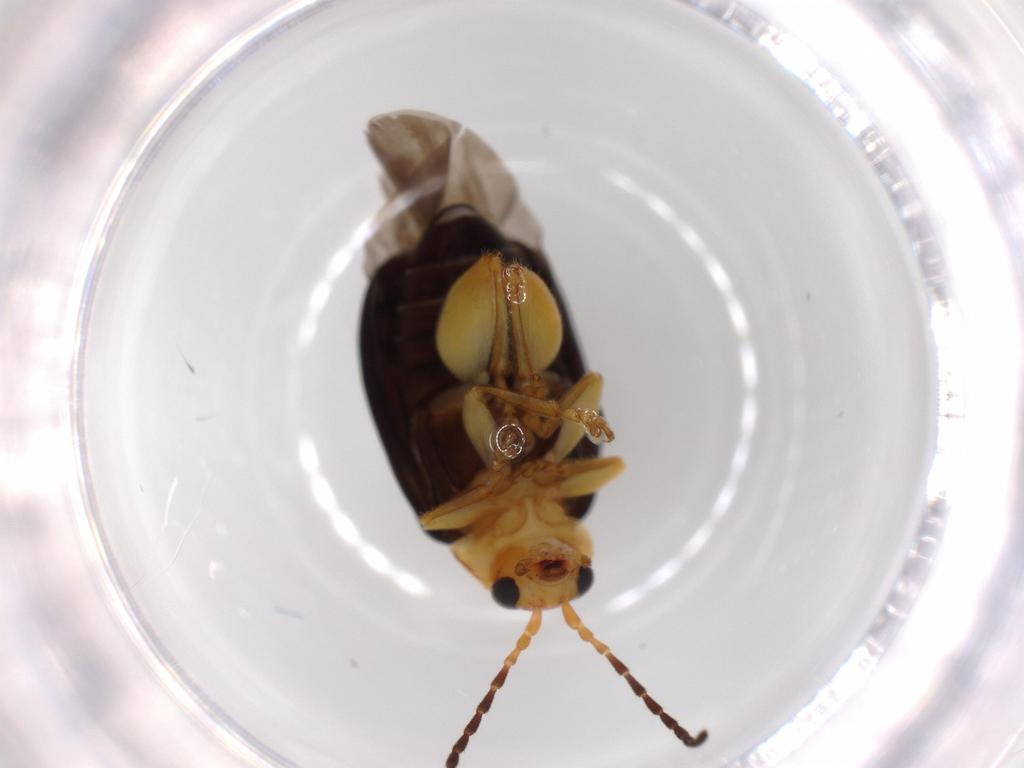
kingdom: Animalia
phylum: Arthropoda
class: Insecta
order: Coleoptera
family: Chrysomelidae
